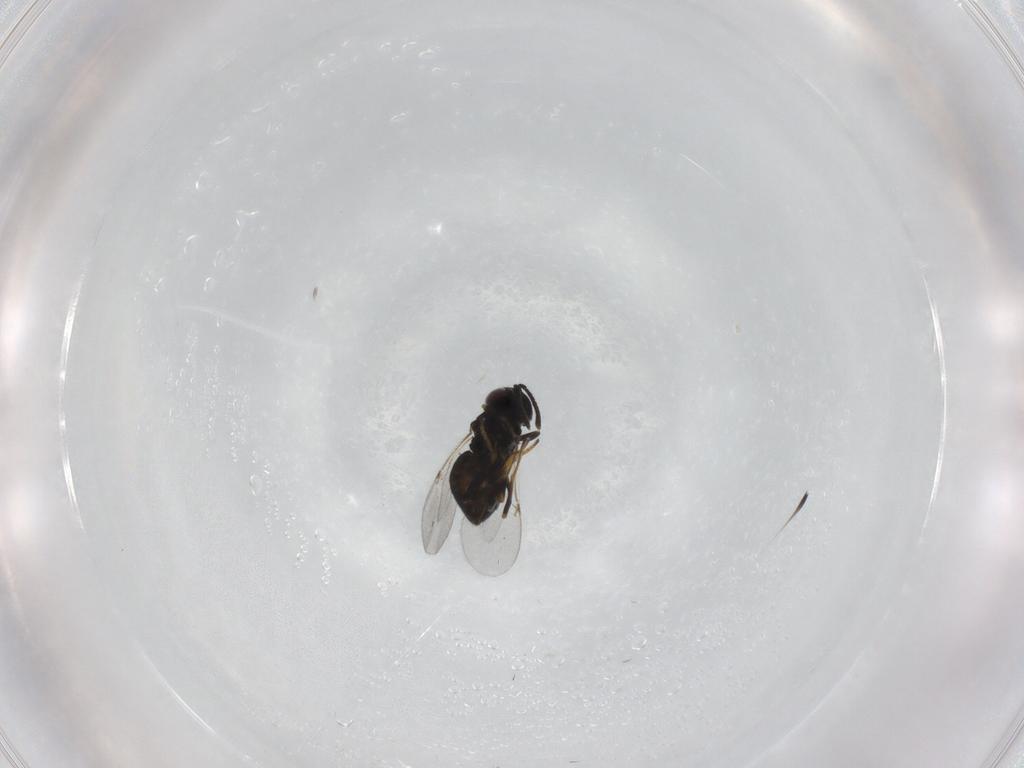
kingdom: Animalia
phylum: Arthropoda
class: Insecta
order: Hymenoptera
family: Encyrtidae
